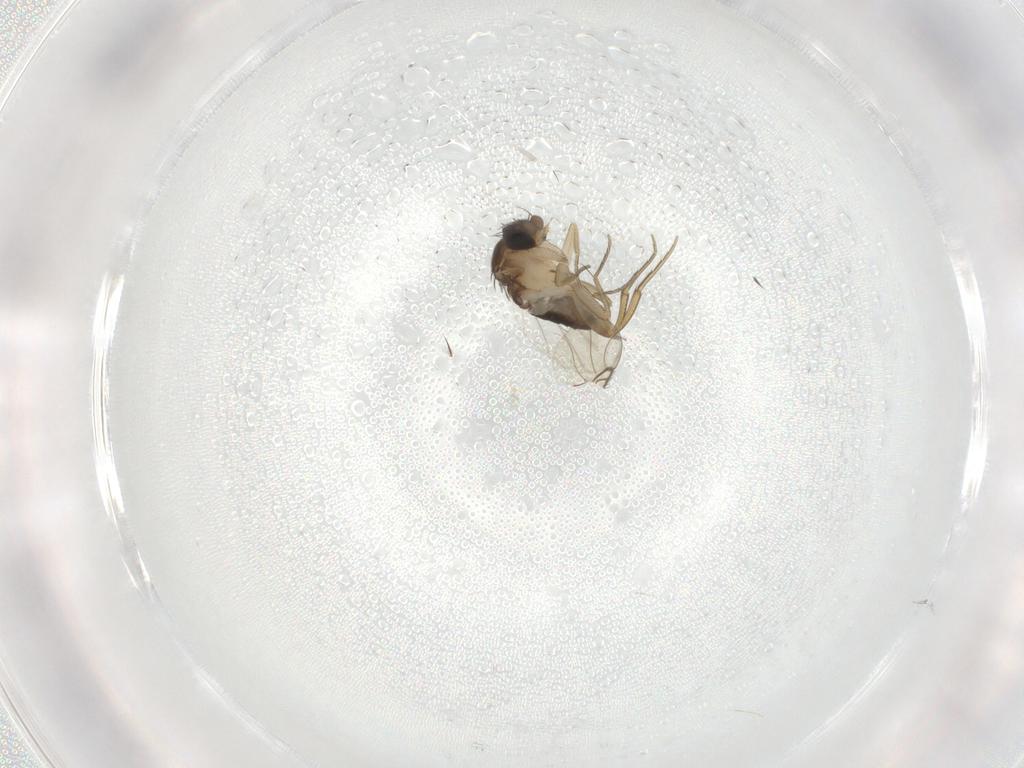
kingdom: Animalia
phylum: Arthropoda
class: Insecta
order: Diptera
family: Phoridae
